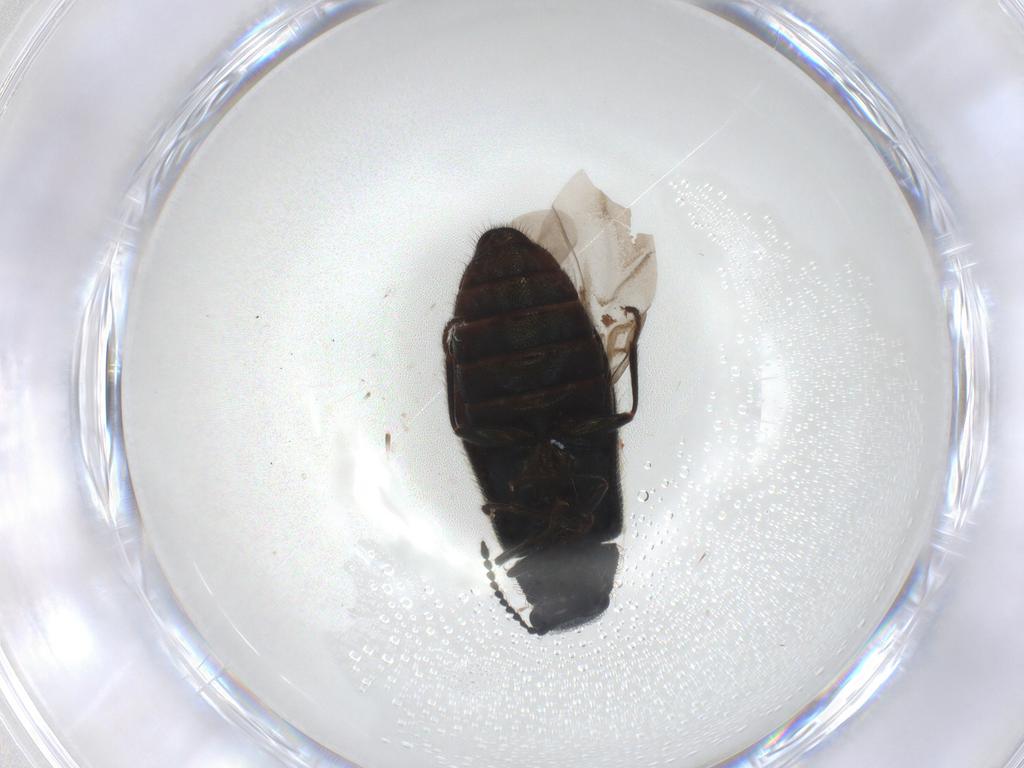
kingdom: Animalia
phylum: Arthropoda
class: Insecta
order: Coleoptera
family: Melyridae
